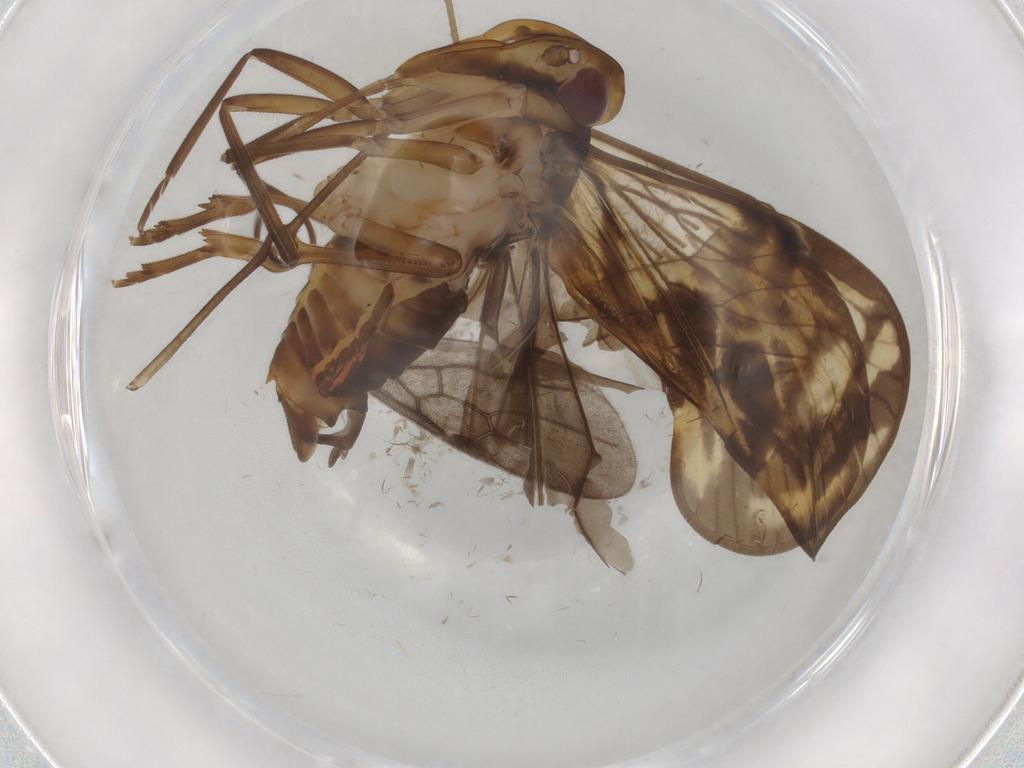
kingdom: Animalia
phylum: Arthropoda
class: Insecta
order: Hemiptera
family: Cixiidae
